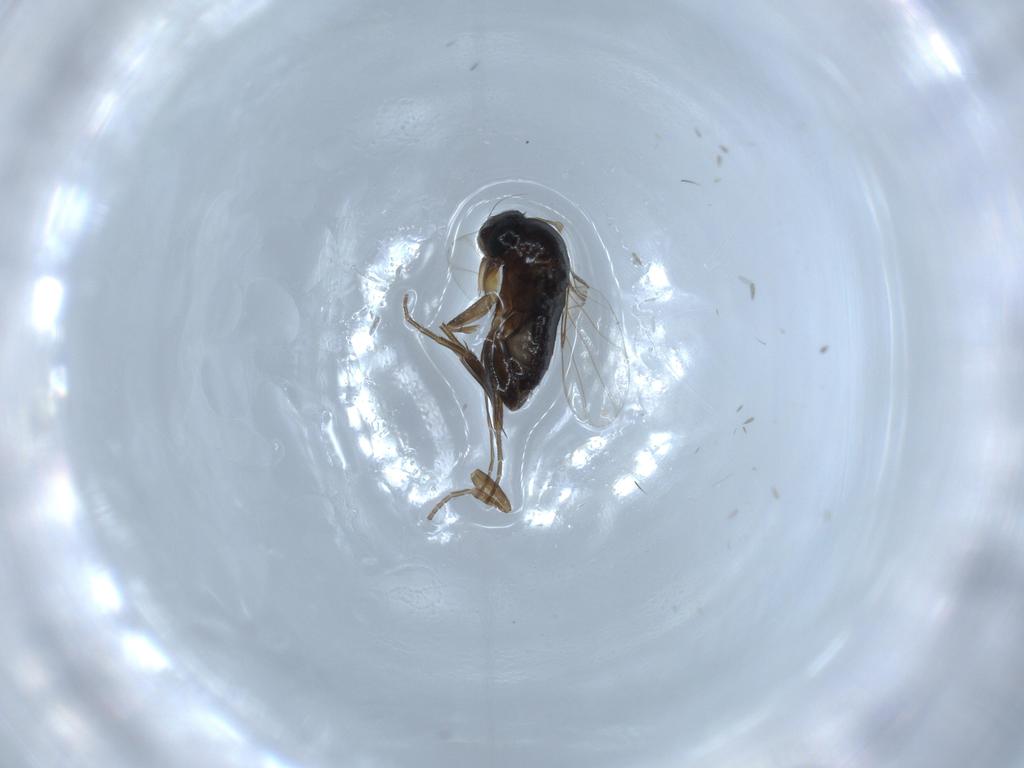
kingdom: Animalia
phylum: Arthropoda
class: Insecta
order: Diptera
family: Phoridae
